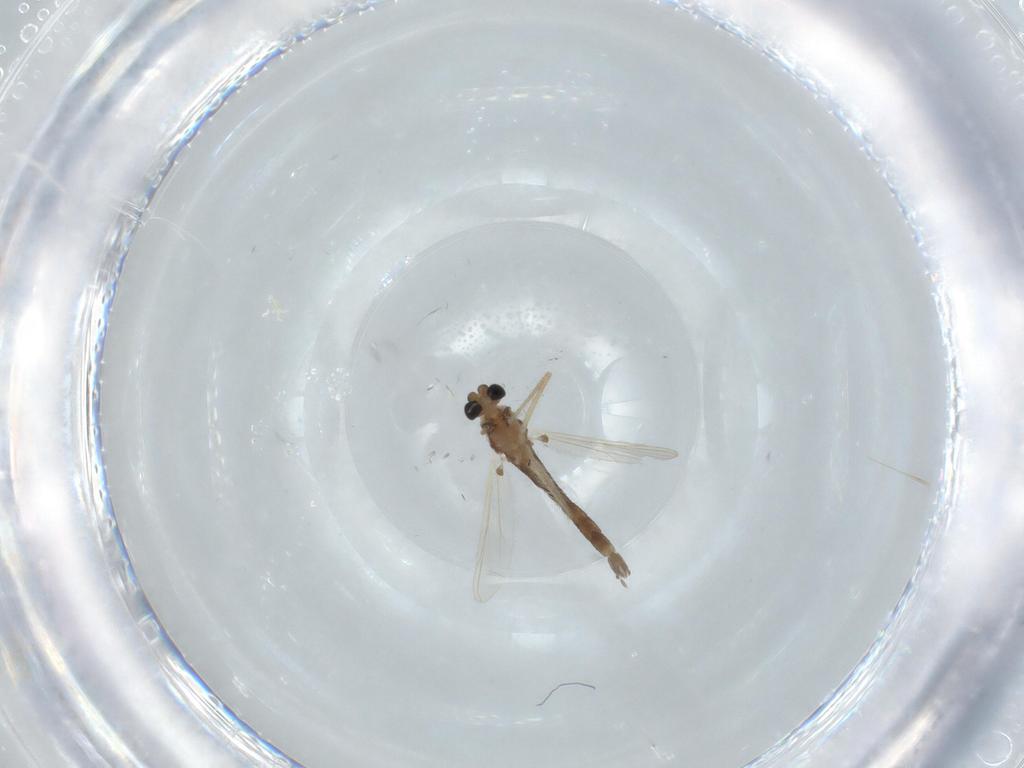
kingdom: Animalia
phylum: Arthropoda
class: Insecta
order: Diptera
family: Chironomidae
